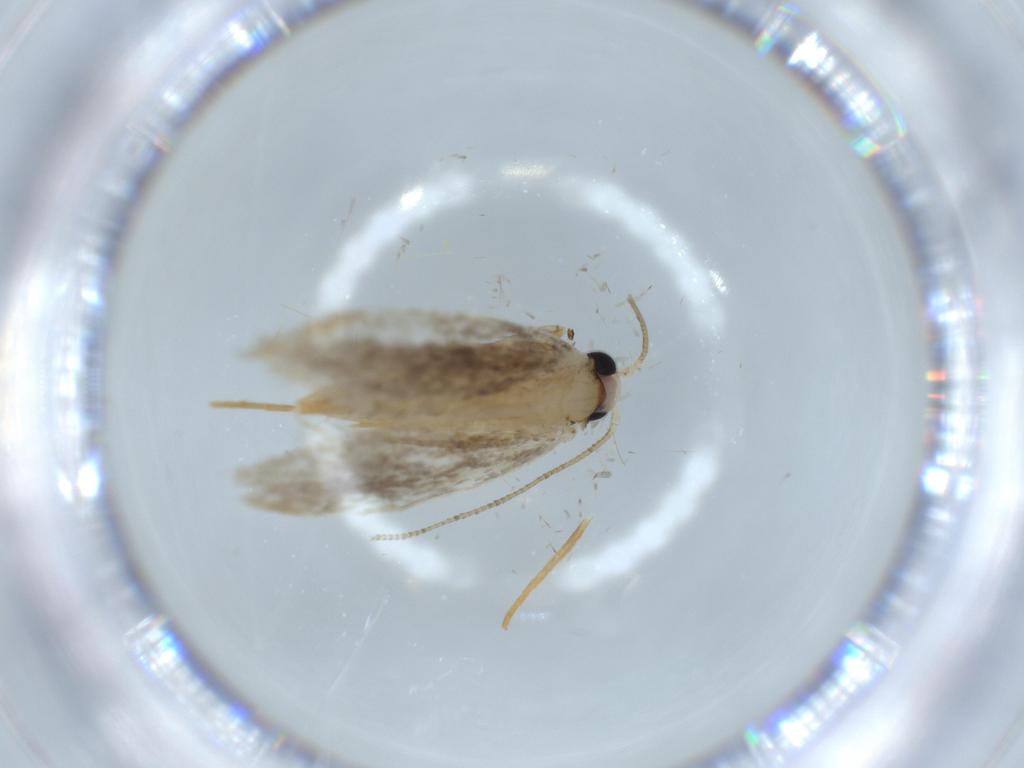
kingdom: Animalia
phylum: Arthropoda
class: Insecta
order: Lepidoptera
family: Tineidae
